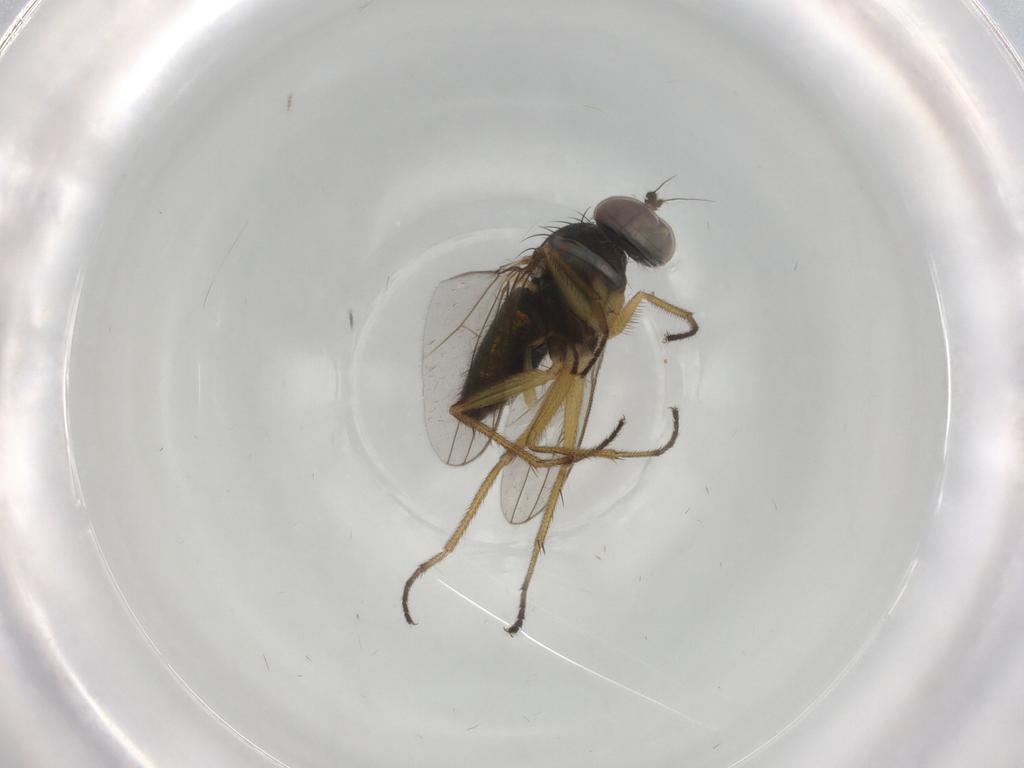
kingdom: Animalia
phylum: Arthropoda
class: Insecta
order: Diptera
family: Dolichopodidae
